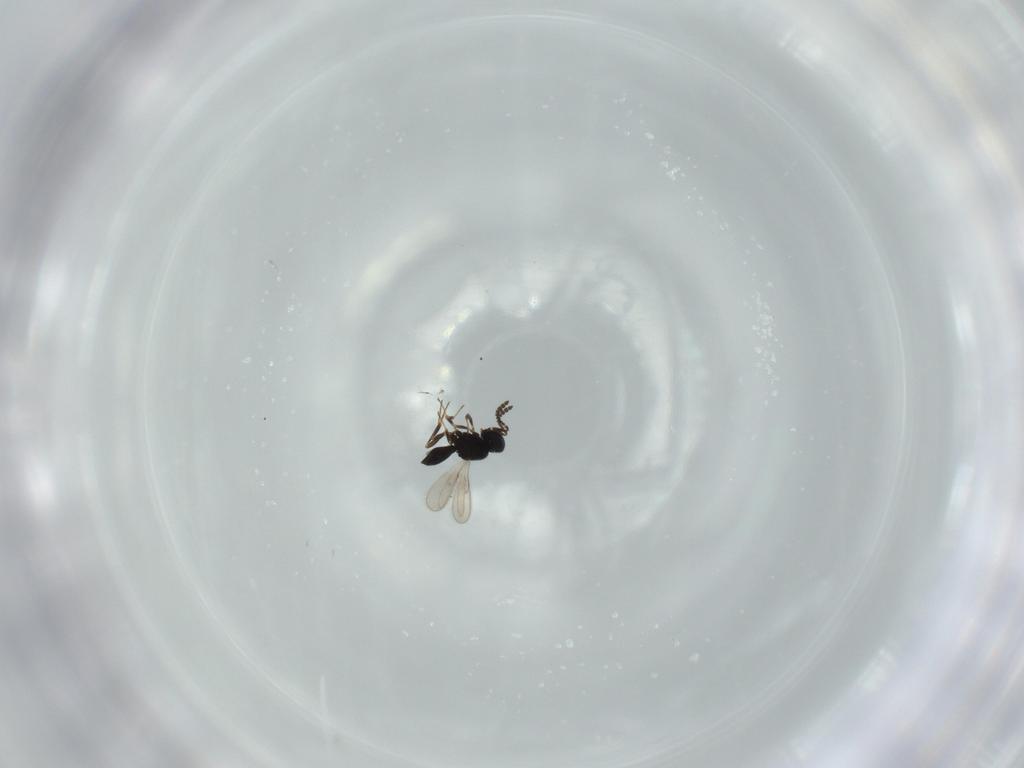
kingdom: Animalia
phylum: Arthropoda
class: Insecta
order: Hymenoptera
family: Scelionidae
